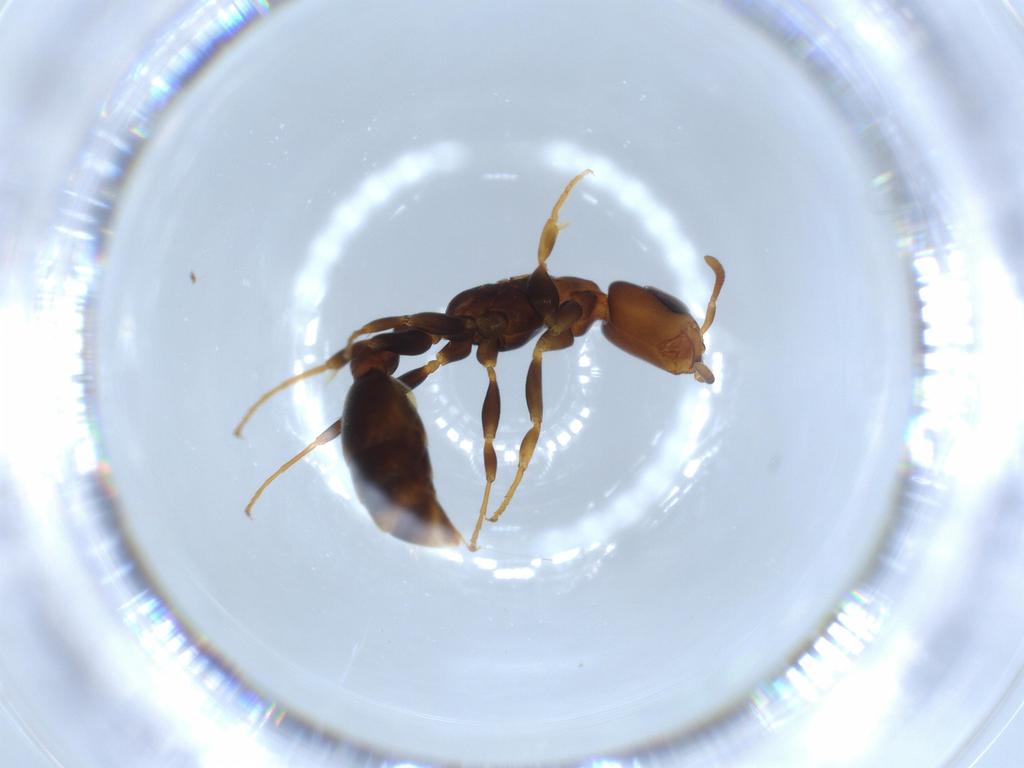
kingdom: Animalia
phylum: Arthropoda
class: Insecta
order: Hymenoptera
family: Formicidae
